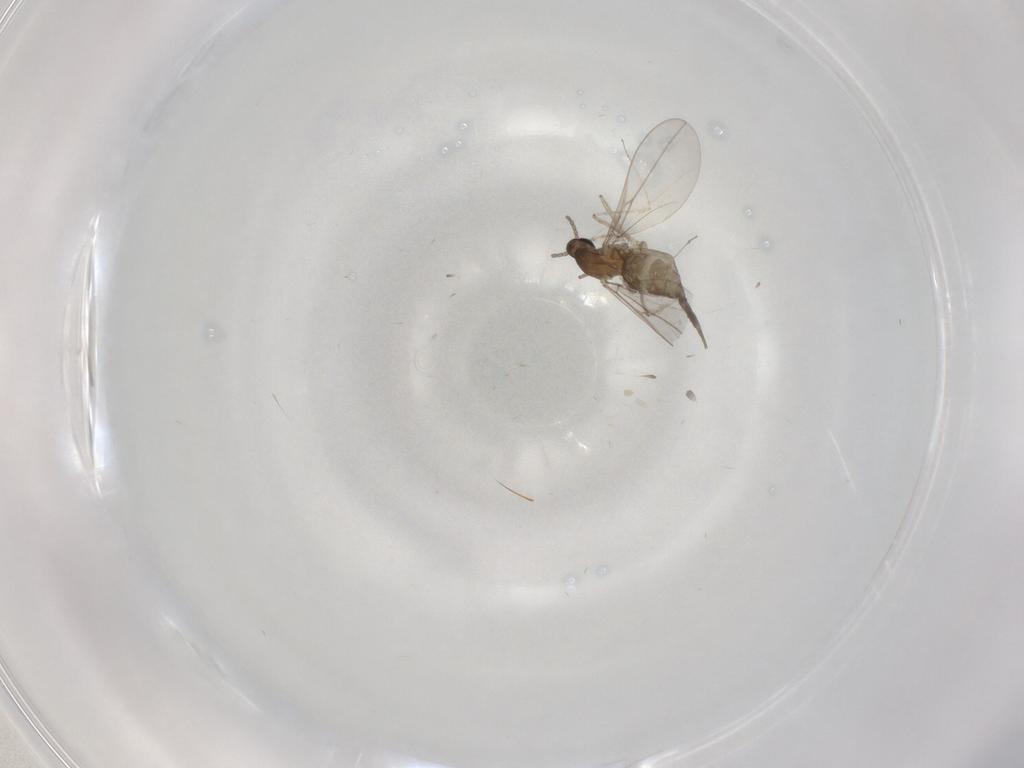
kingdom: Animalia
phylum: Arthropoda
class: Insecta
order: Diptera
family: Cecidomyiidae
